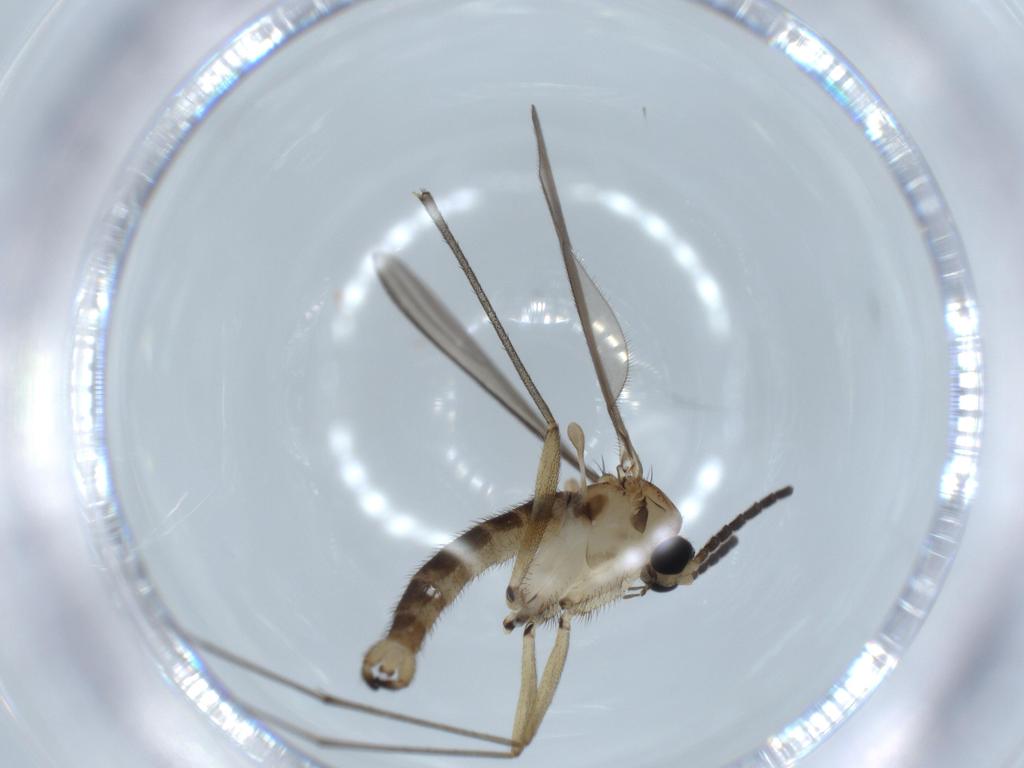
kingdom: Animalia
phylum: Arthropoda
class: Insecta
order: Diptera
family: Sciaridae
